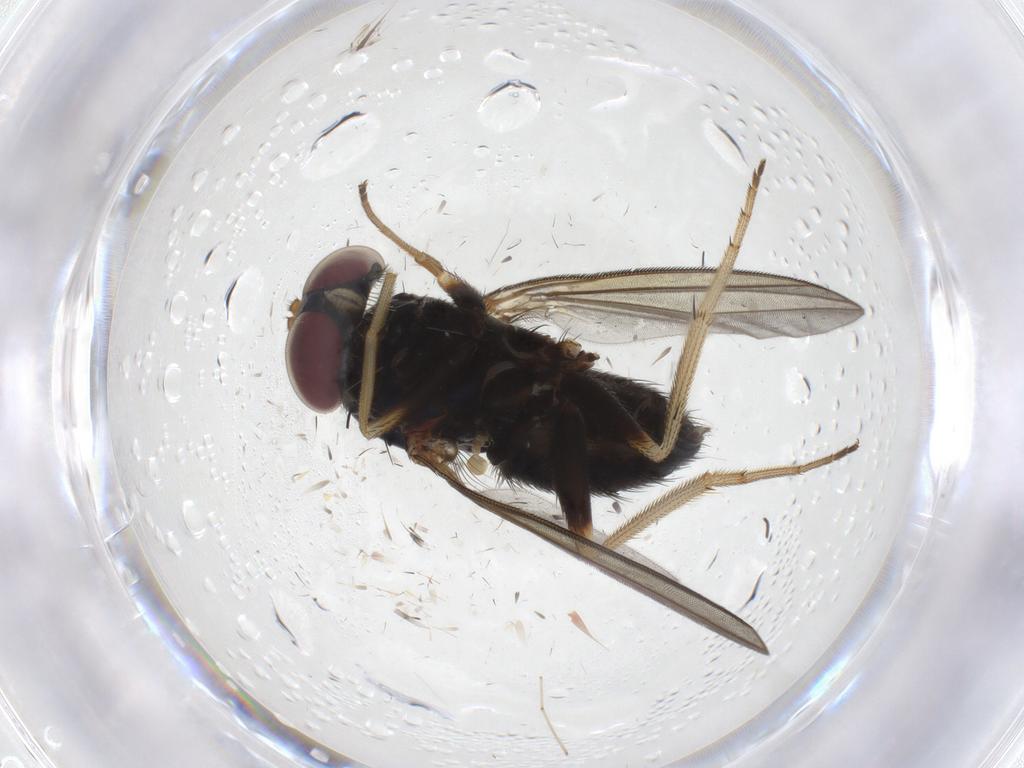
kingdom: Animalia
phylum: Arthropoda
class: Insecta
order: Diptera
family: Dolichopodidae
